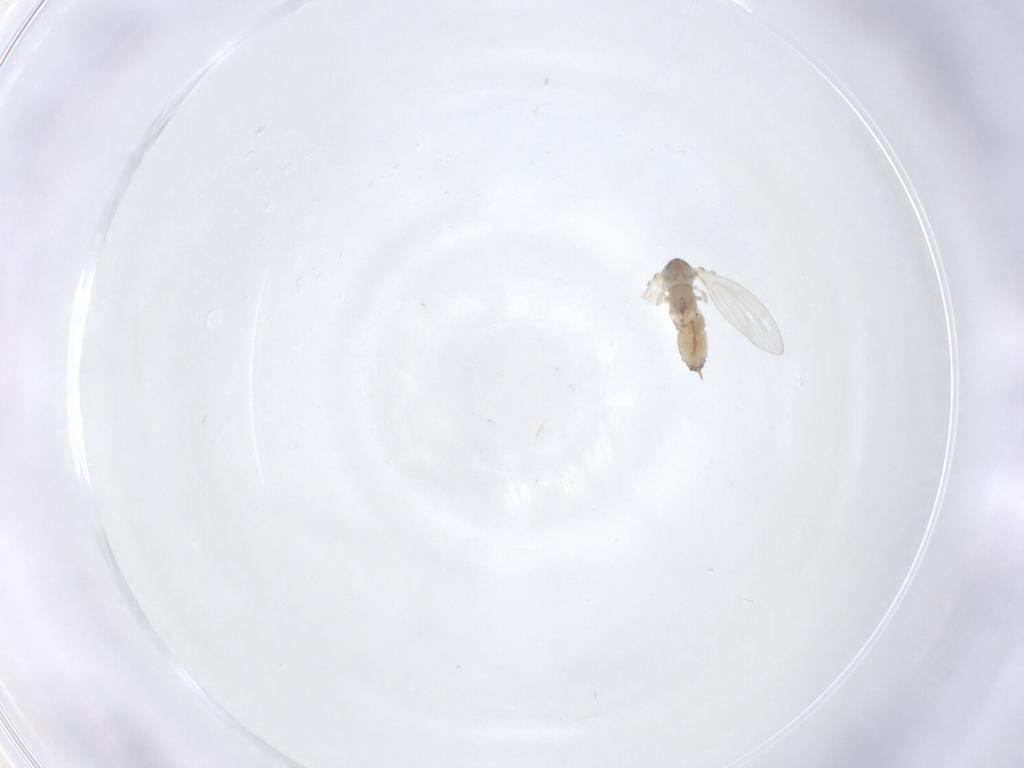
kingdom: Animalia
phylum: Arthropoda
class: Insecta
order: Diptera
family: Psychodidae
